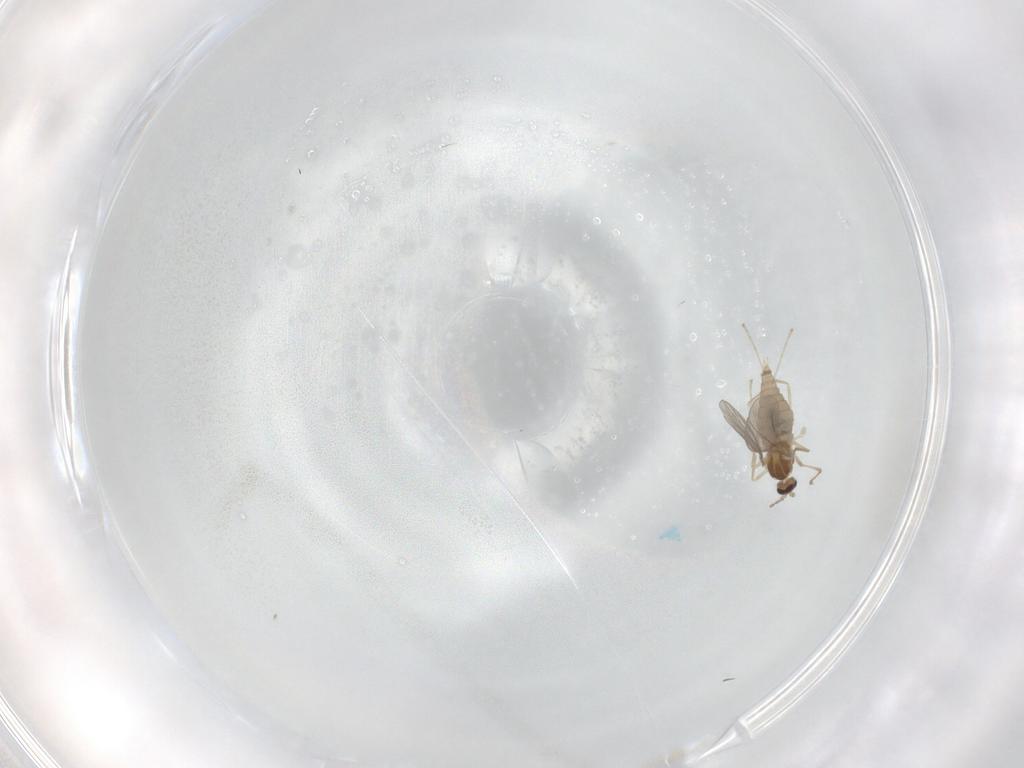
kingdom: Animalia
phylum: Arthropoda
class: Insecta
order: Diptera
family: Cecidomyiidae
